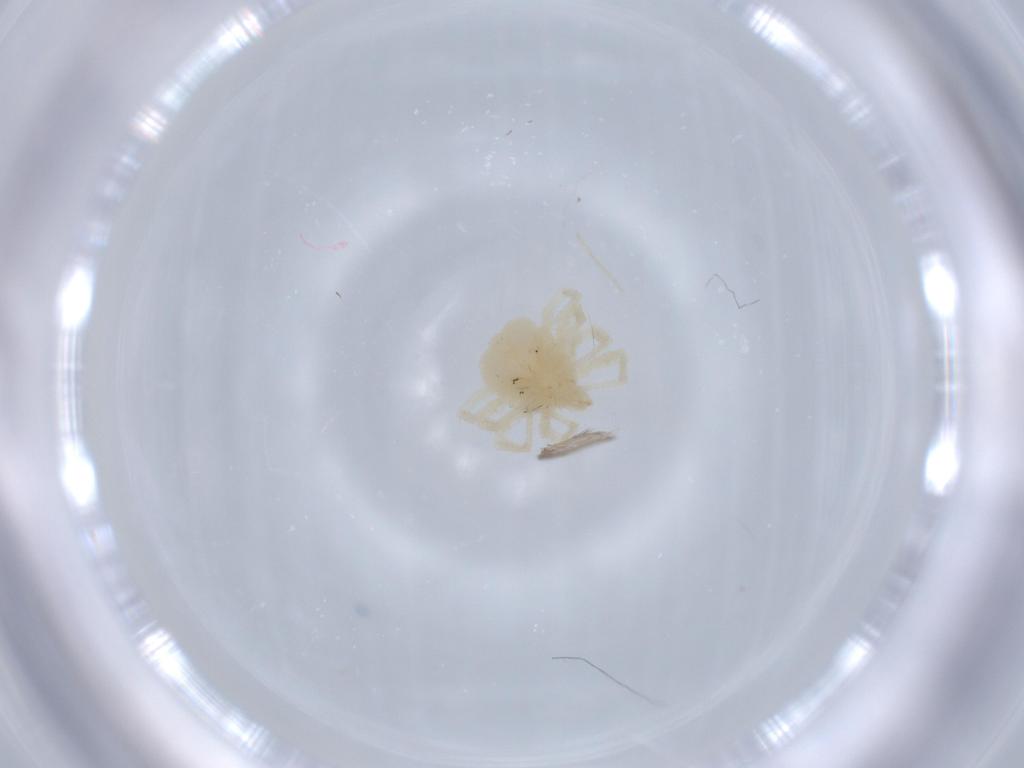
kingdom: Animalia
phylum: Arthropoda
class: Arachnida
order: Trombidiformes
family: Anystidae
